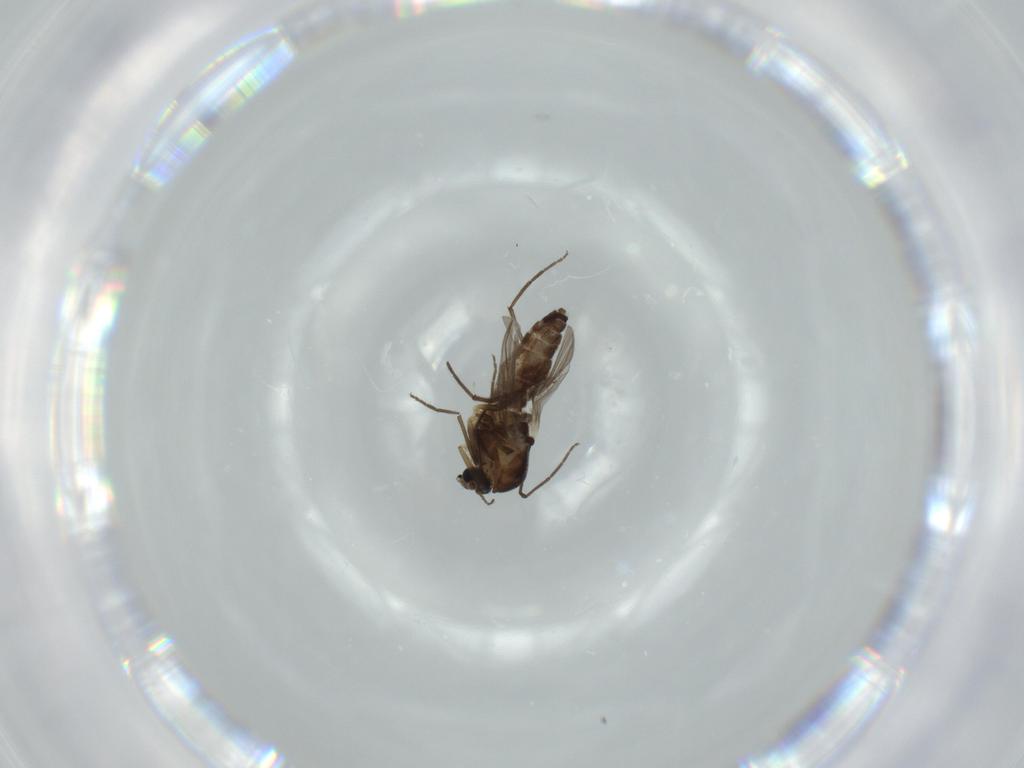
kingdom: Animalia
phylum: Arthropoda
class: Insecta
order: Diptera
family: Chironomidae
